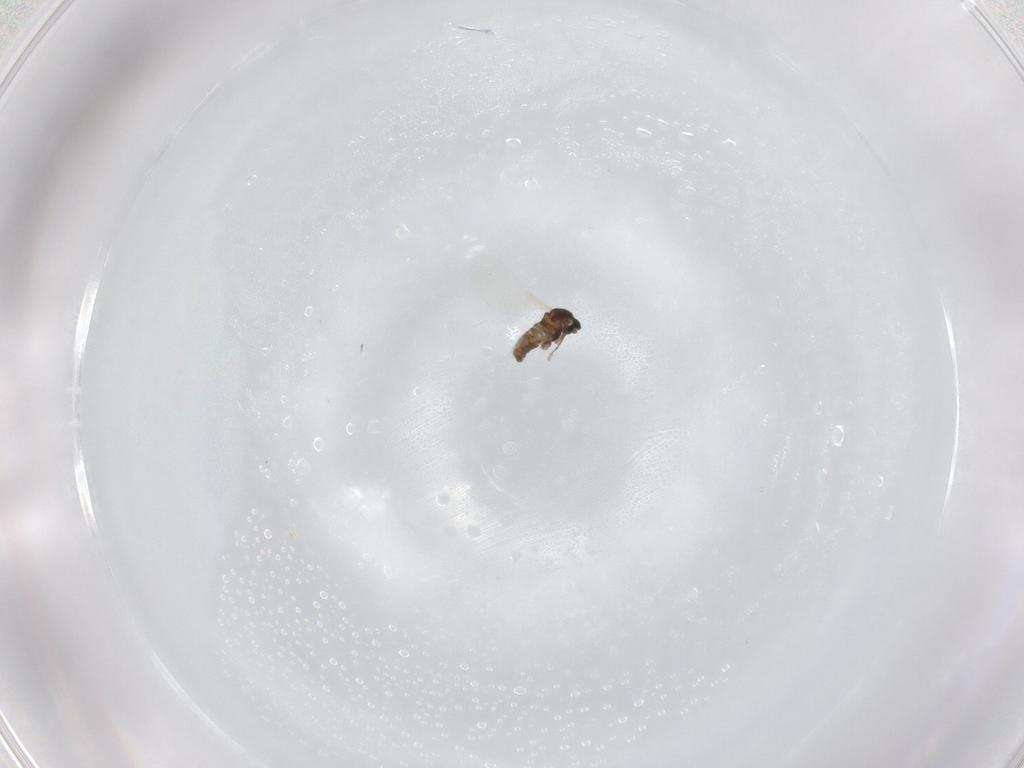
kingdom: Animalia
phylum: Arthropoda
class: Insecta
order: Diptera
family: Cecidomyiidae
